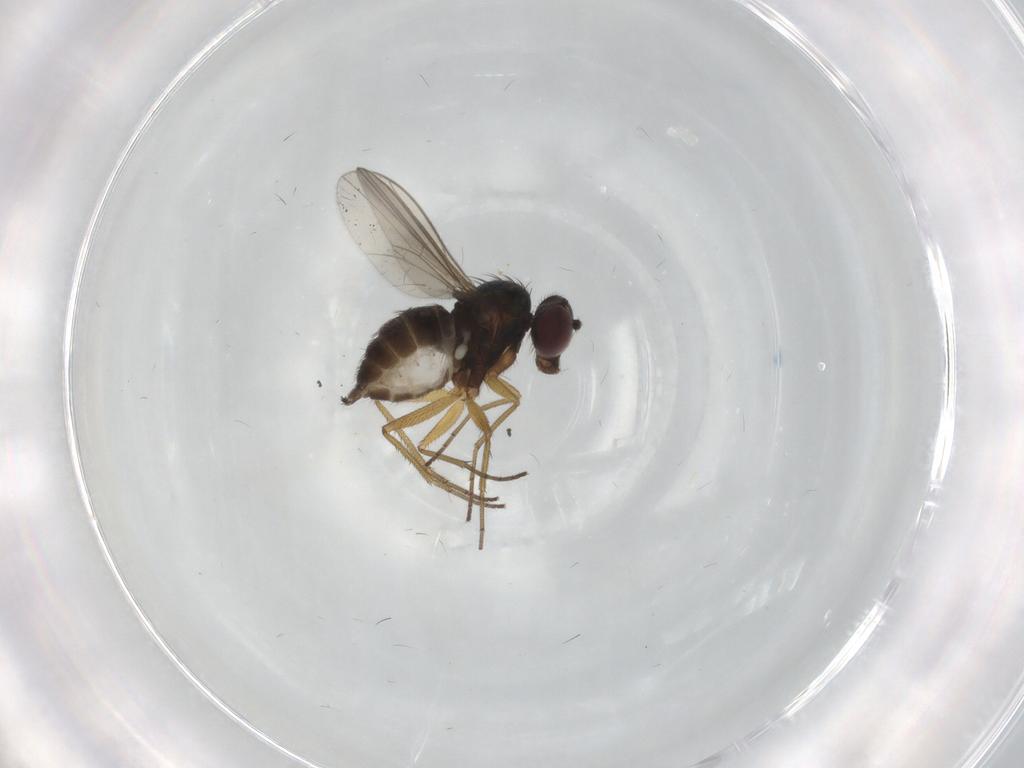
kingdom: Animalia
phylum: Arthropoda
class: Insecta
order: Diptera
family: Dolichopodidae
